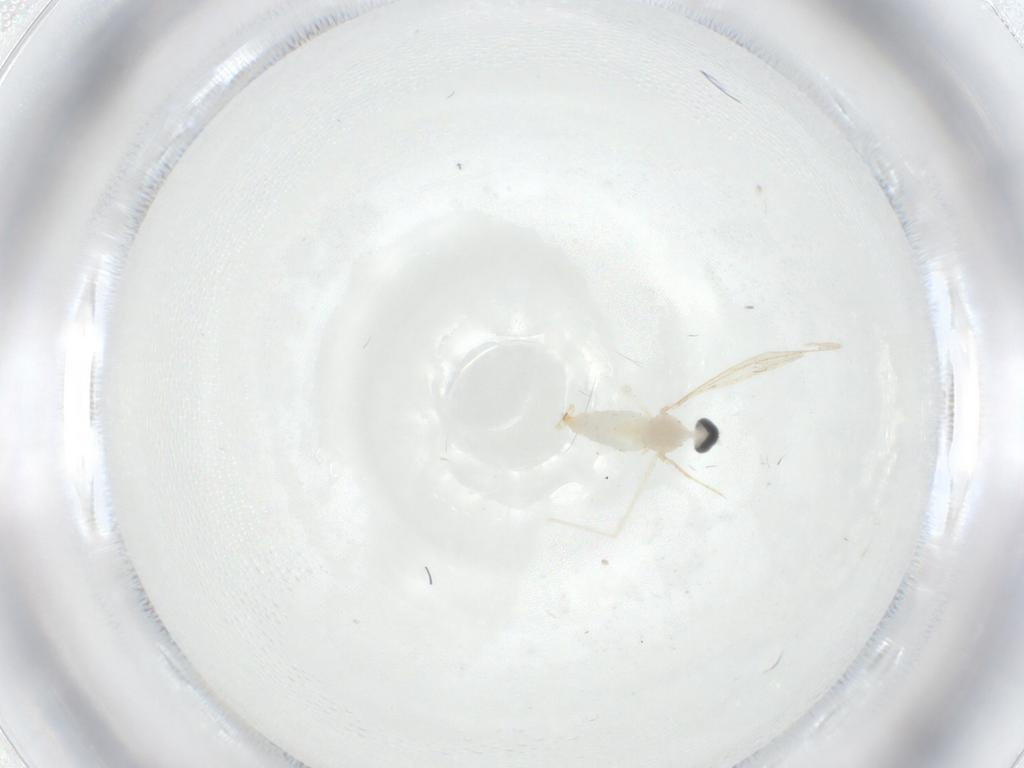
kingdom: Animalia
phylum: Arthropoda
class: Insecta
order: Diptera
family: Cecidomyiidae
